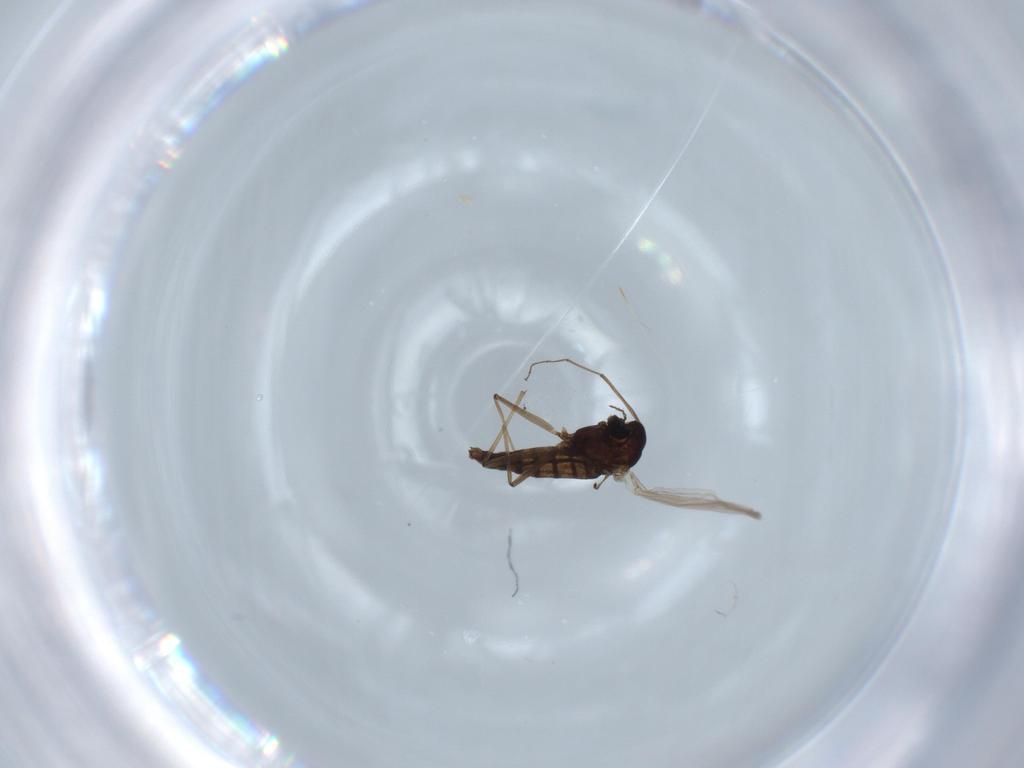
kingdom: Animalia
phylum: Arthropoda
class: Insecta
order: Diptera
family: Chironomidae
